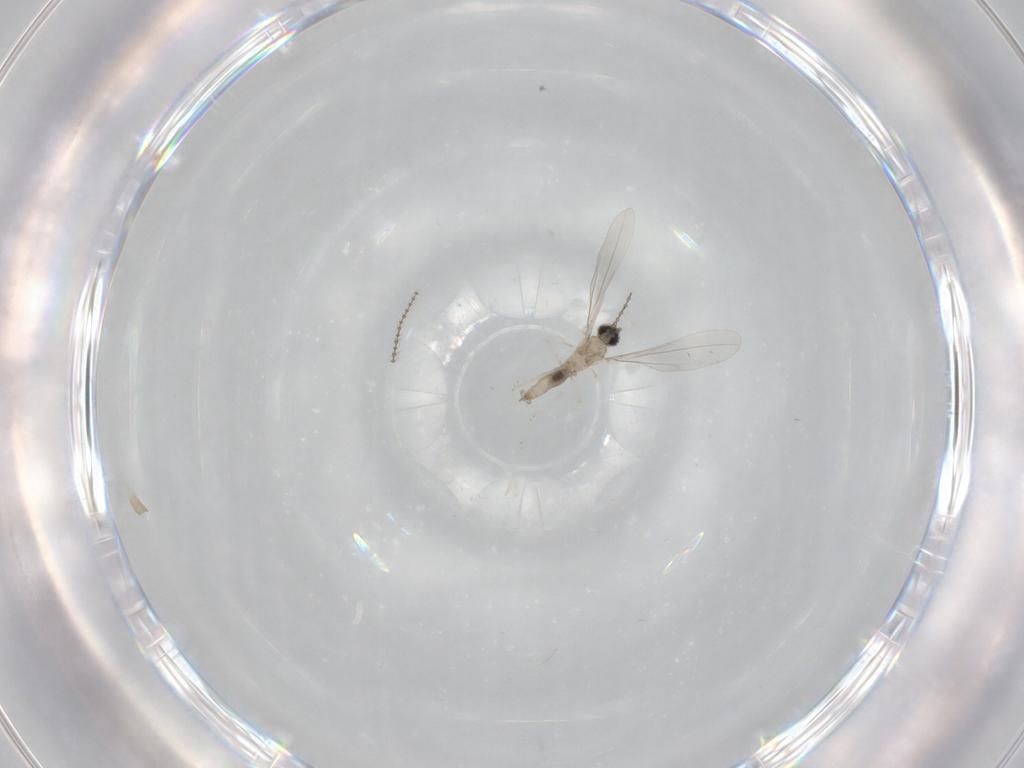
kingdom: Animalia
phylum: Arthropoda
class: Insecta
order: Diptera
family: Cecidomyiidae
